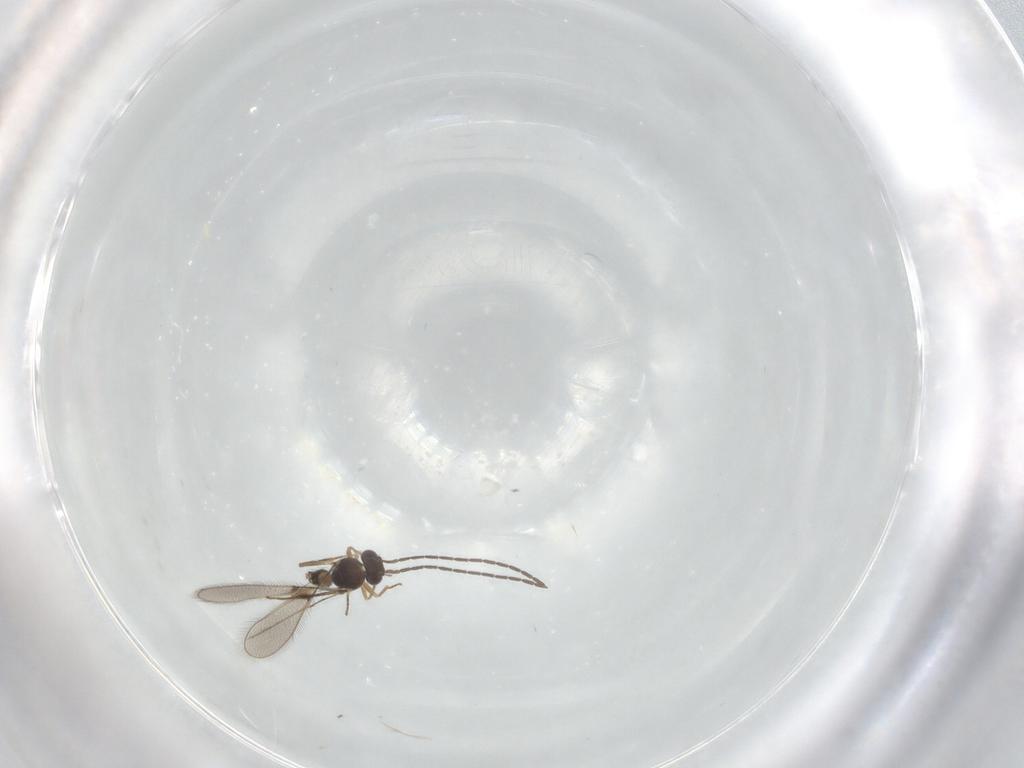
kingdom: Animalia
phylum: Arthropoda
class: Insecta
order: Hymenoptera
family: Mymaridae
